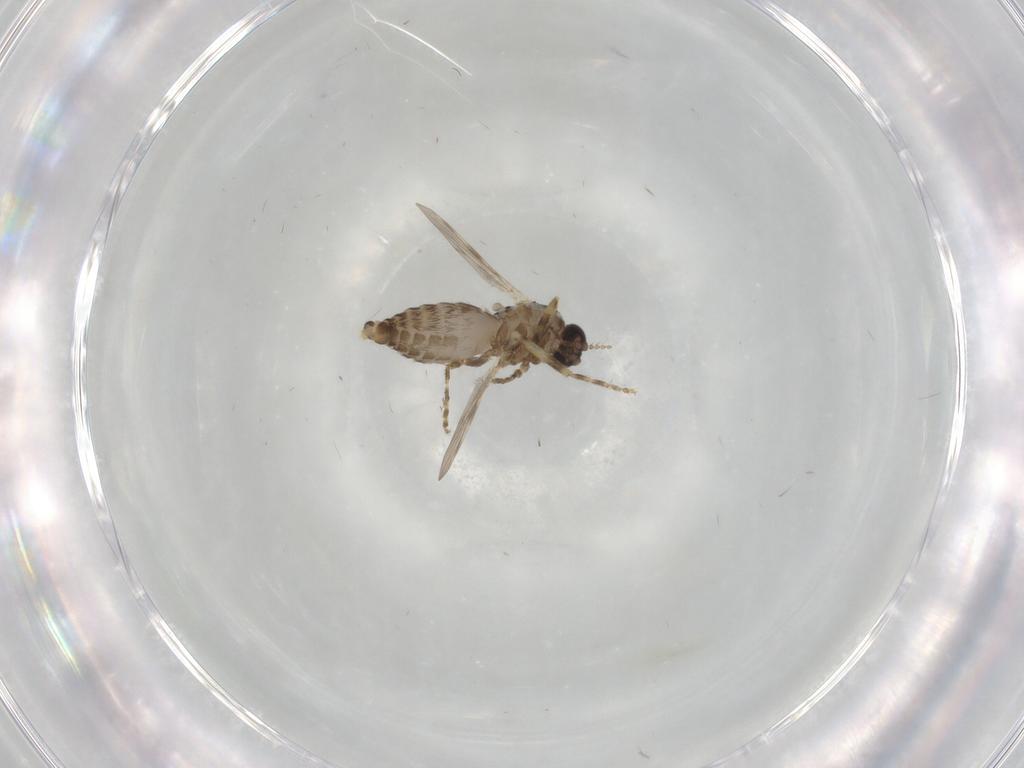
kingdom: Animalia
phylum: Arthropoda
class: Insecta
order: Diptera
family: Ceratopogonidae
